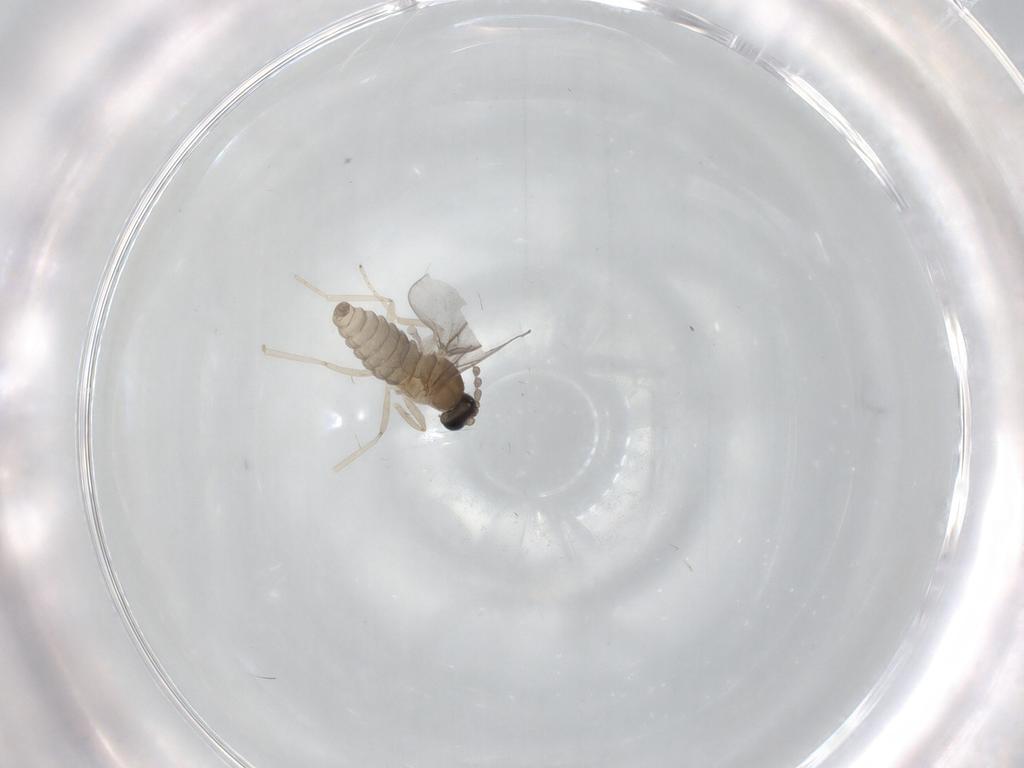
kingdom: Animalia
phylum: Arthropoda
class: Insecta
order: Diptera
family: Cecidomyiidae
